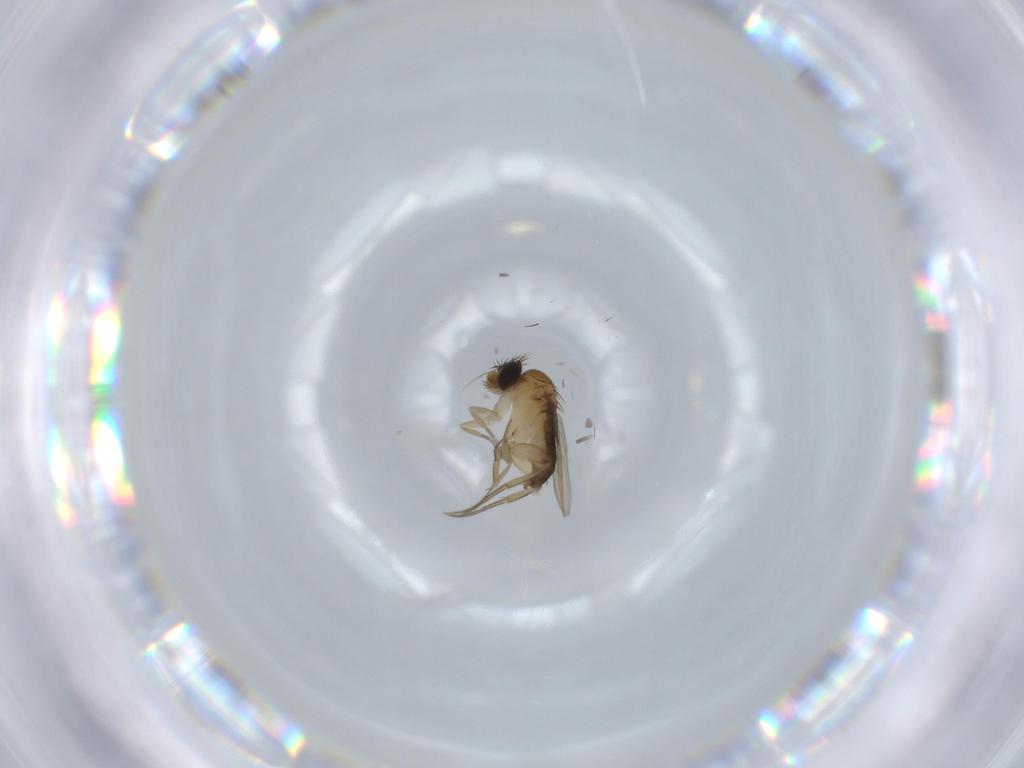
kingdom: Animalia
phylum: Arthropoda
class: Insecta
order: Diptera
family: Phoridae
